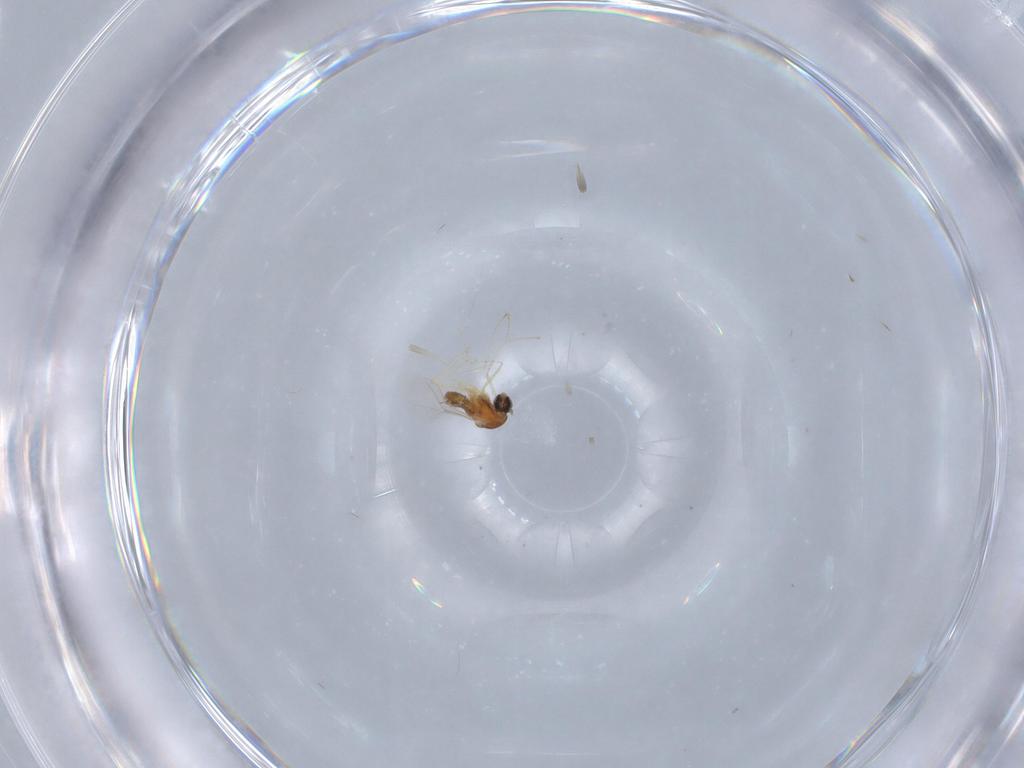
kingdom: Animalia
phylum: Arthropoda
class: Insecta
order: Diptera
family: Cecidomyiidae
